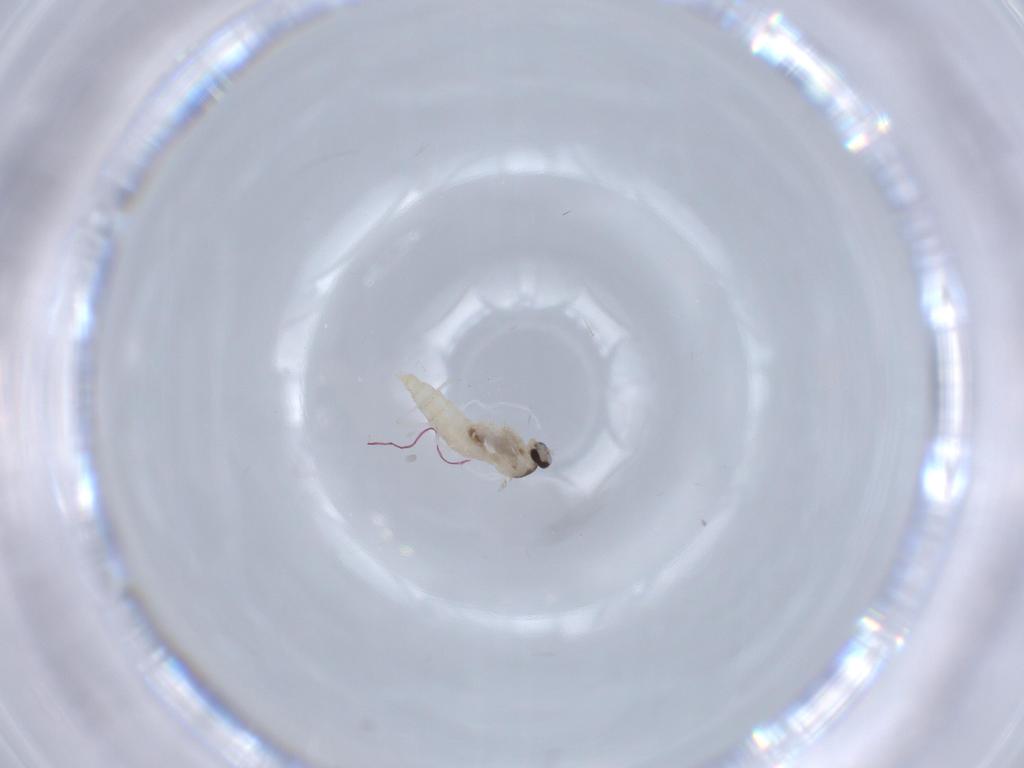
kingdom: Animalia
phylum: Arthropoda
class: Insecta
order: Diptera
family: Cecidomyiidae
